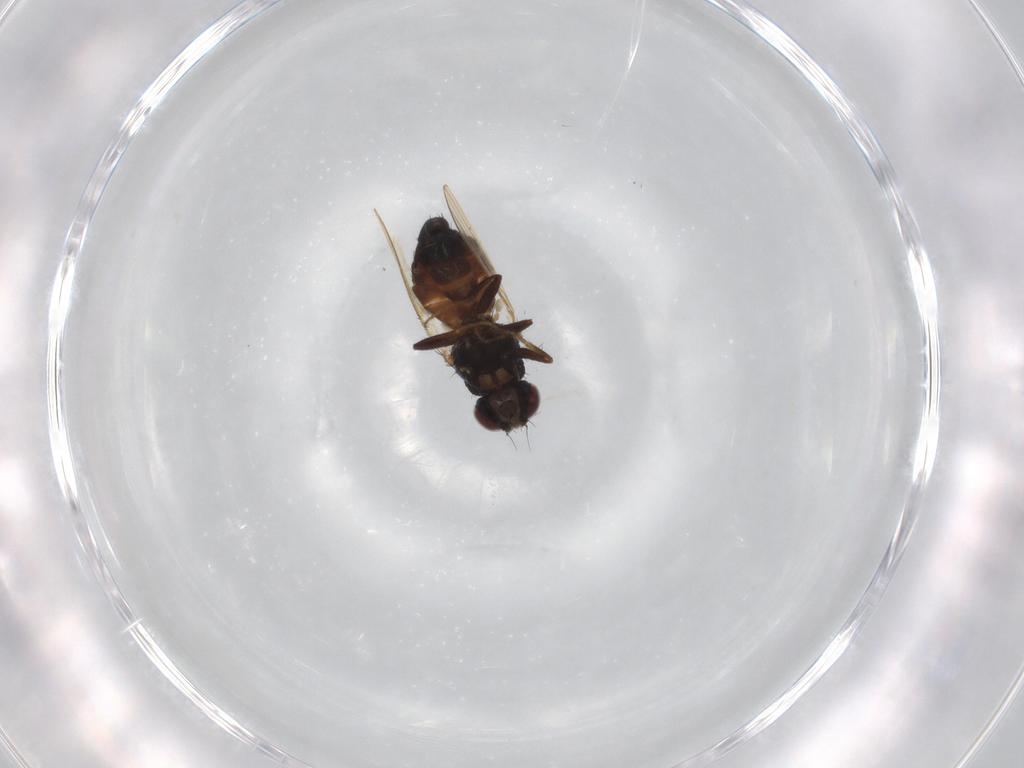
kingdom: Animalia
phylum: Arthropoda
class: Insecta
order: Diptera
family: Carnidae
